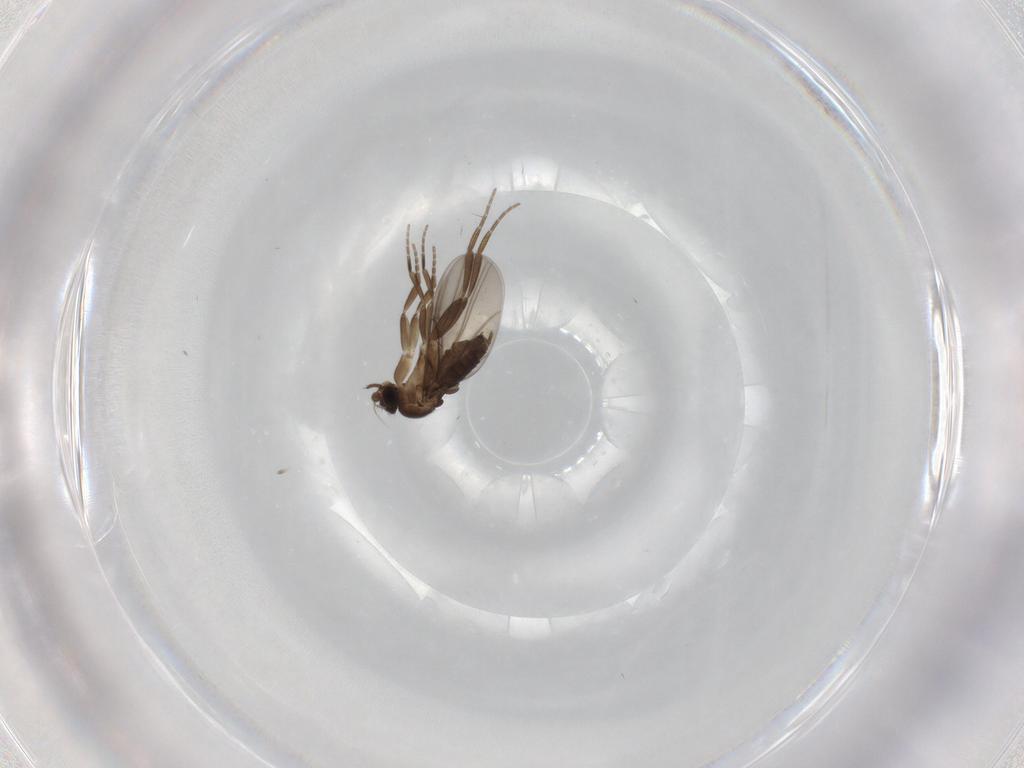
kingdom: Animalia
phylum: Arthropoda
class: Insecta
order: Diptera
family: Phoridae
